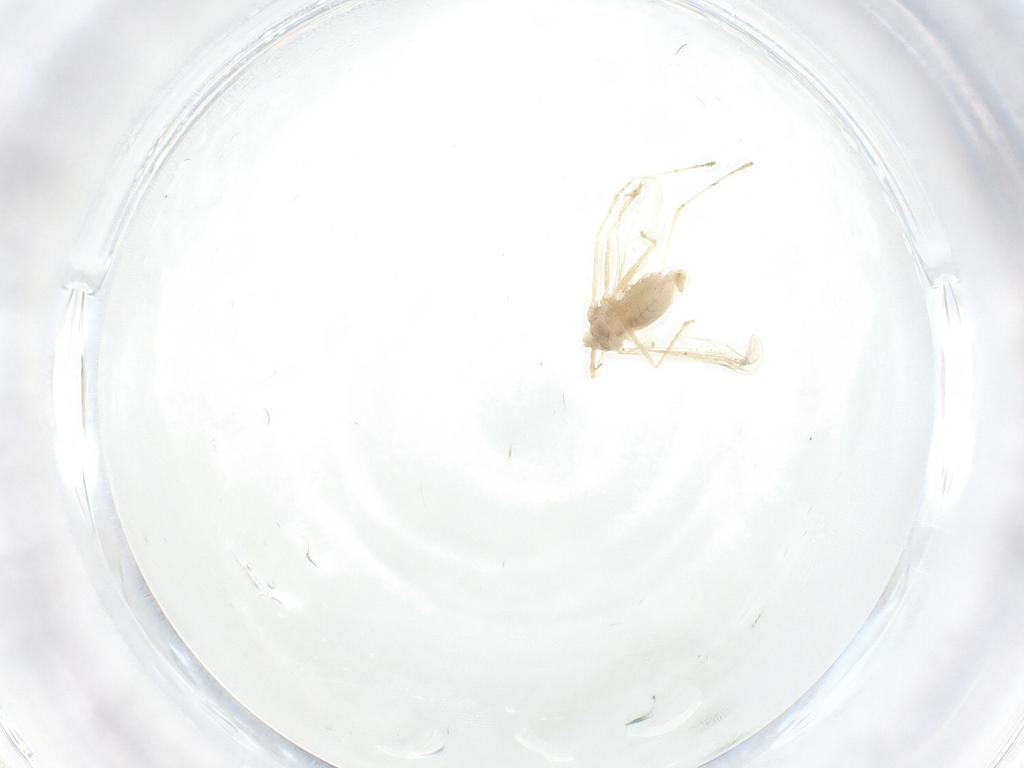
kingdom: Animalia
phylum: Arthropoda
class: Insecta
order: Diptera
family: Cecidomyiidae
